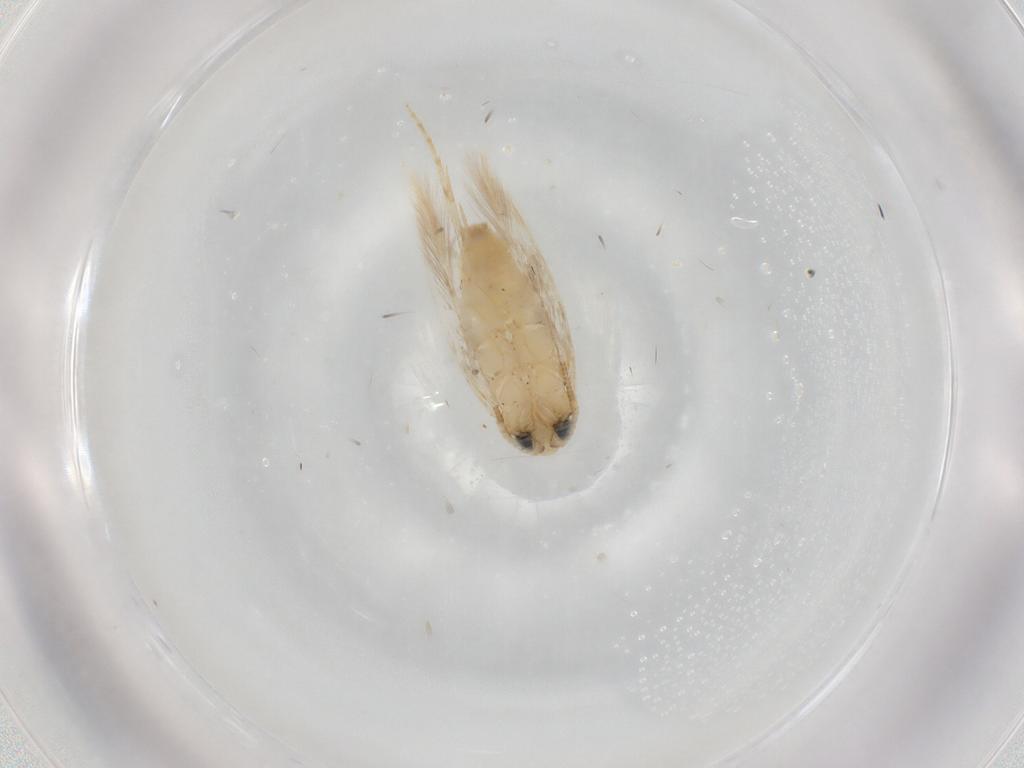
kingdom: Animalia
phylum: Arthropoda
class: Insecta
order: Lepidoptera
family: Opostegidae
